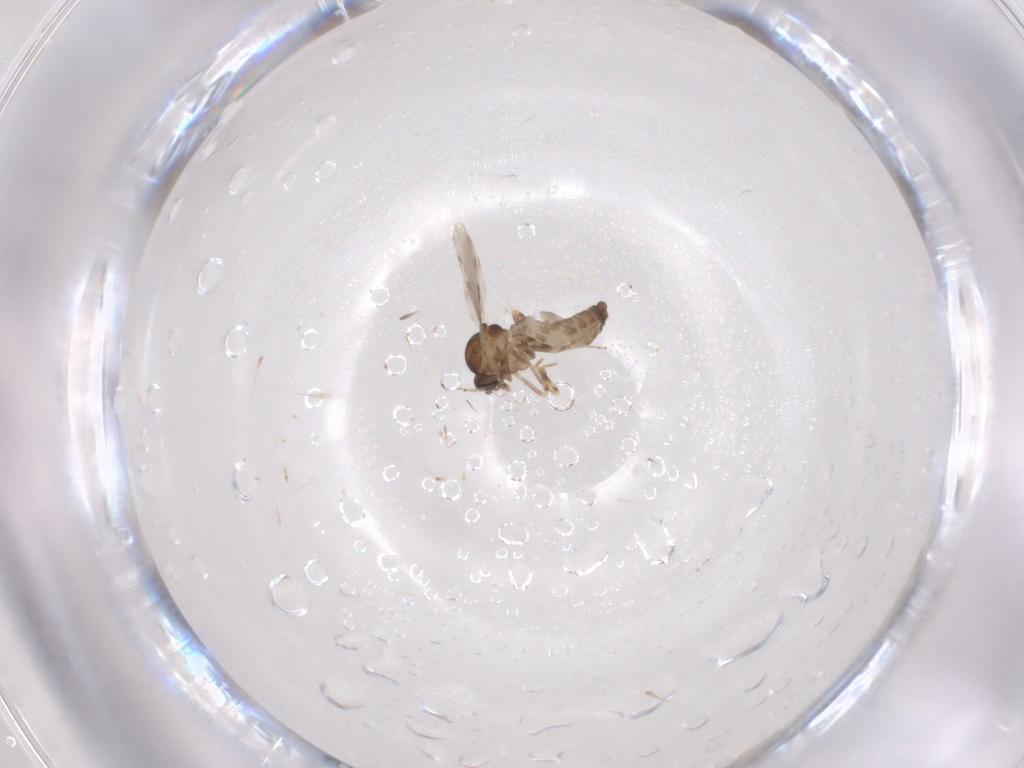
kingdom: Animalia
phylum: Arthropoda
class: Insecta
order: Diptera
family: Ceratopogonidae
